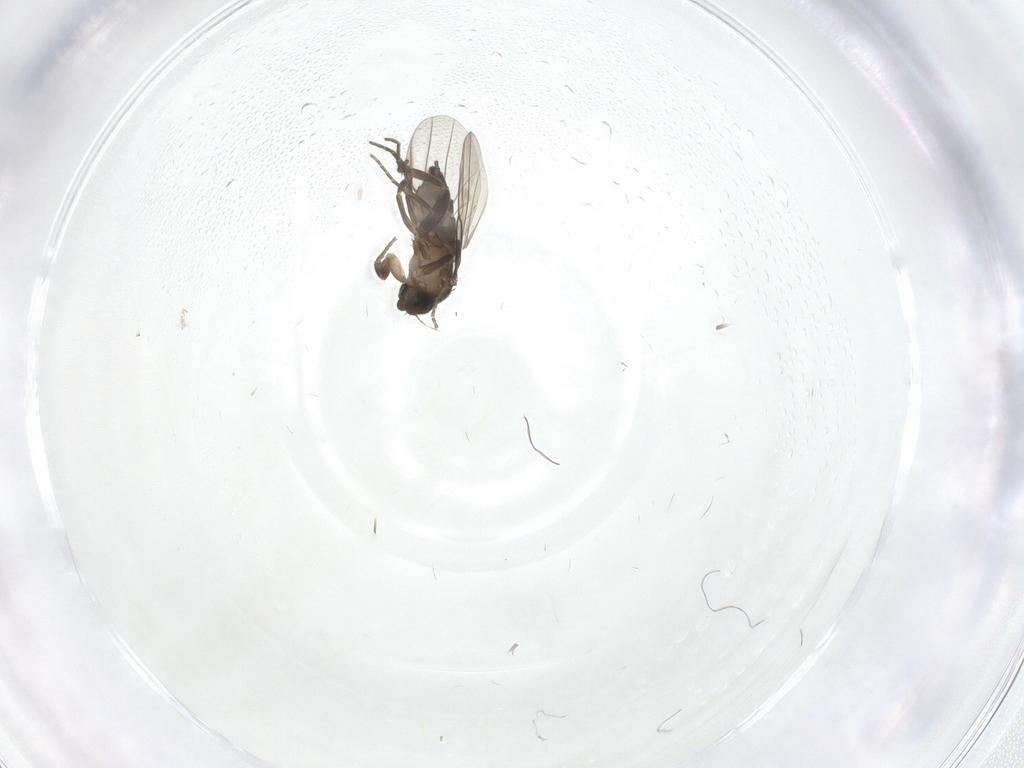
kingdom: Animalia
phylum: Arthropoda
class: Insecta
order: Diptera
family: Phoridae
